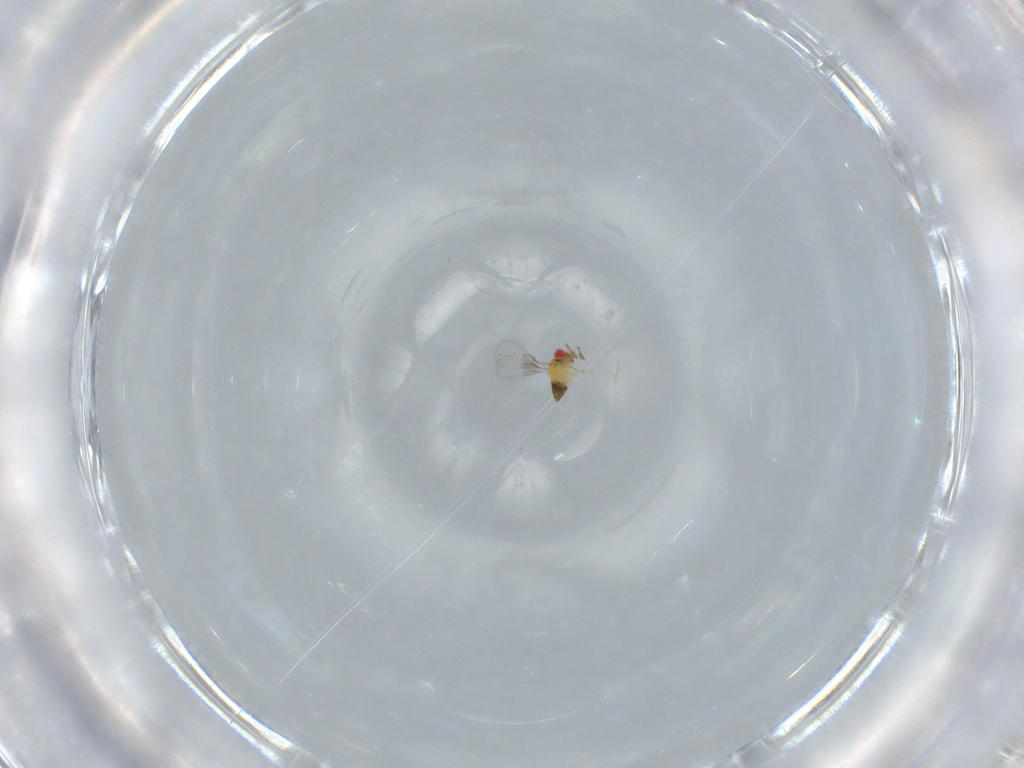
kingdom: Animalia
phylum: Arthropoda
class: Insecta
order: Hymenoptera
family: Trichogrammatidae
